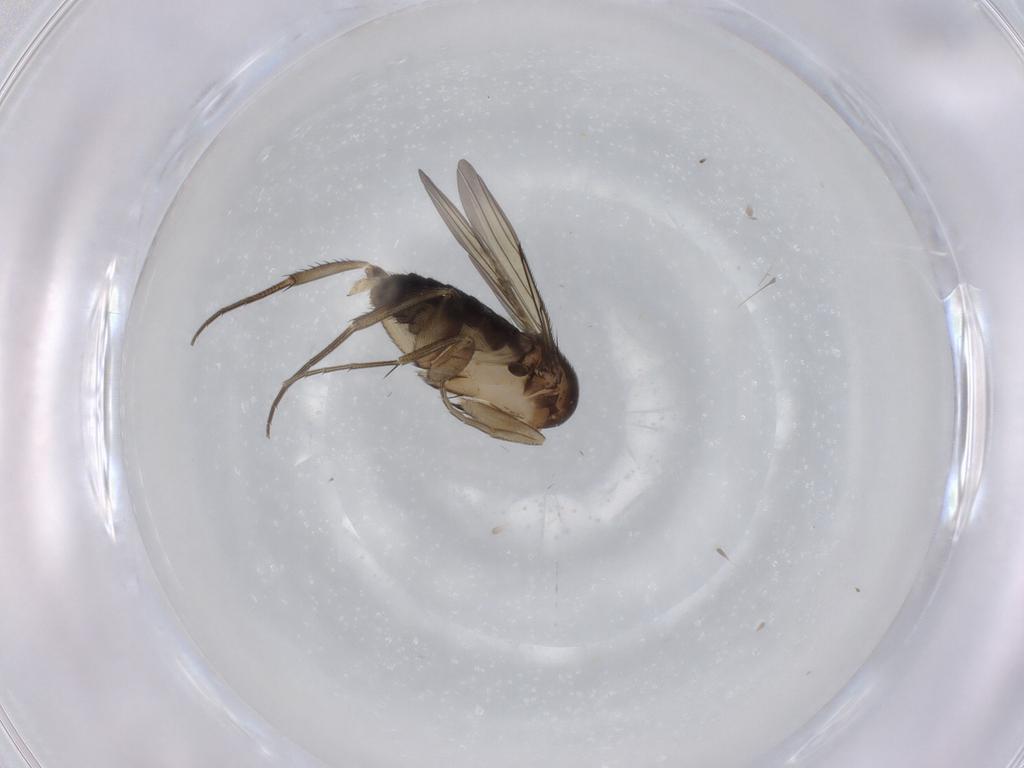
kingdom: Animalia
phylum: Arthropoda
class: Insecta
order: Diptera
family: Phoridae
